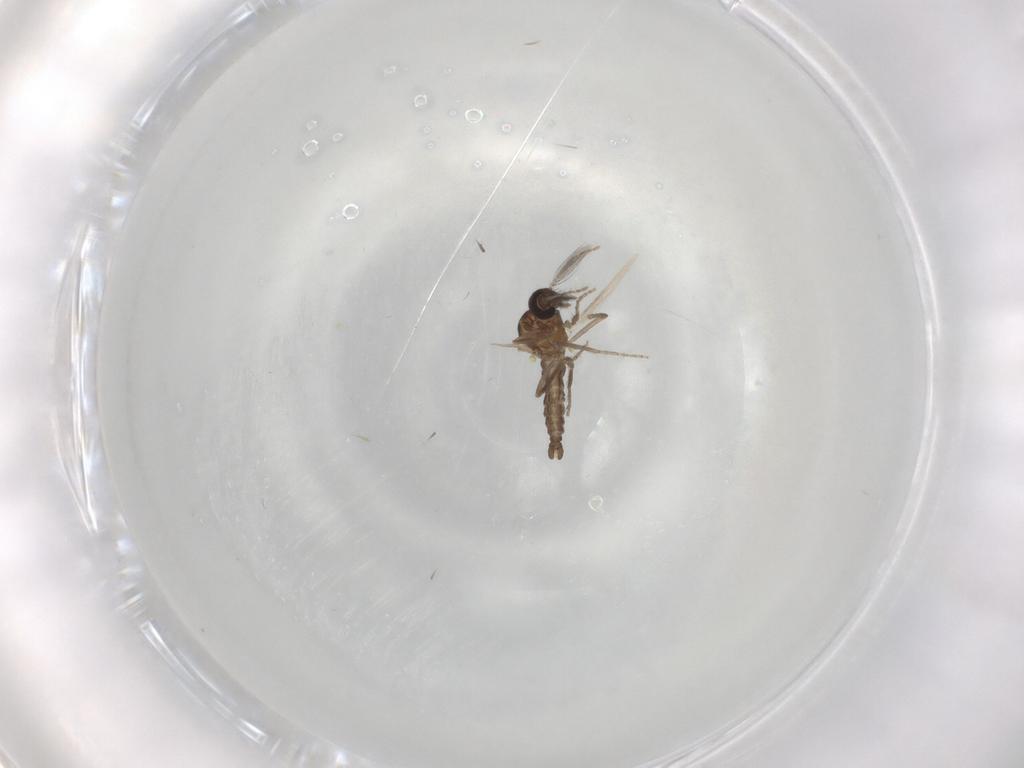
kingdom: Animalia
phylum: Arthropoda
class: Insecta
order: Diptera
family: Ceratopogonidae
